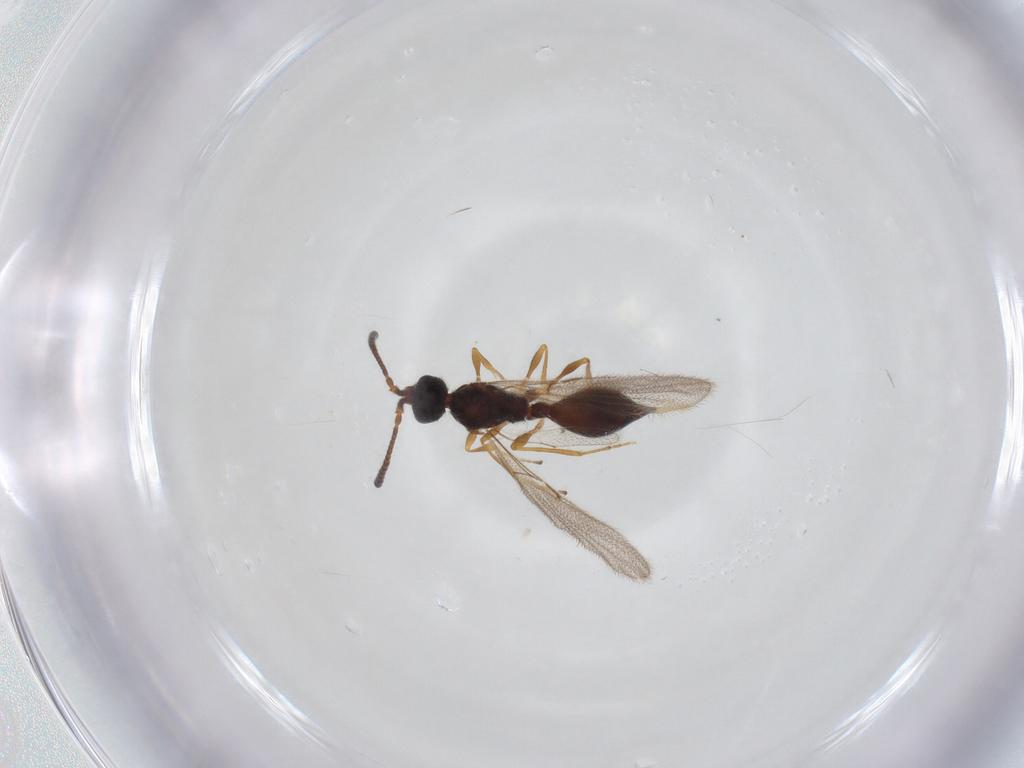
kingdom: Animalia
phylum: Arthropoda
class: Insecta
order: Hymenoptera
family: Diapriidae
